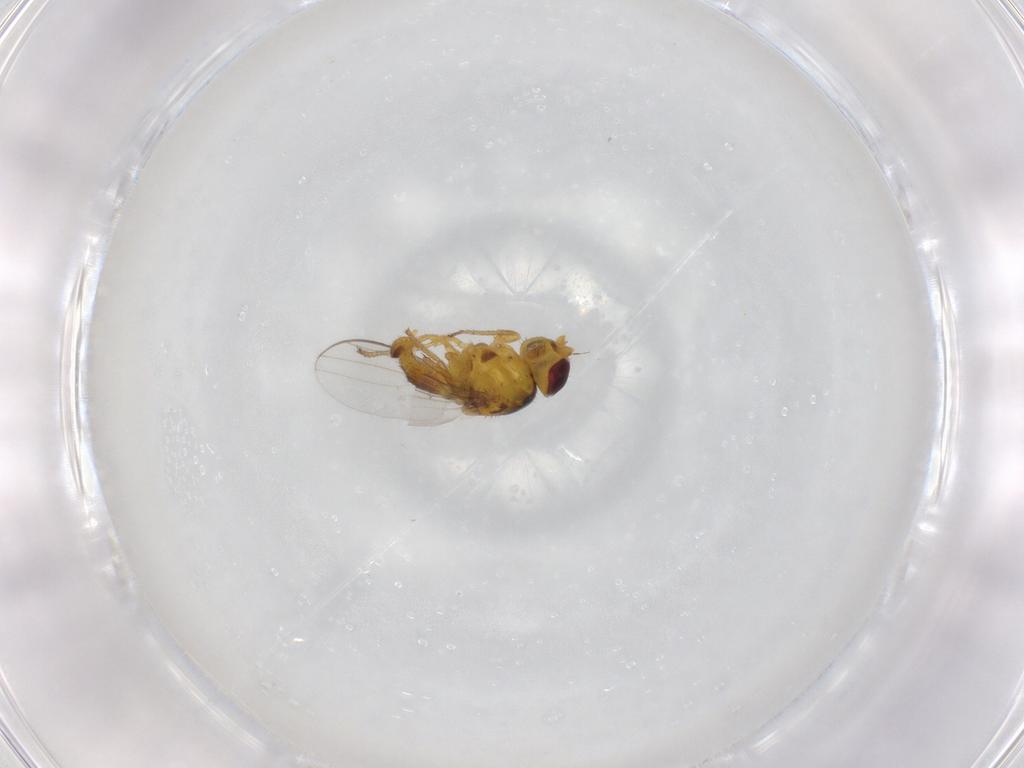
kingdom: Animalia
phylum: Arthropoda
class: Insecta
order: Diptera
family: Chloropidae
